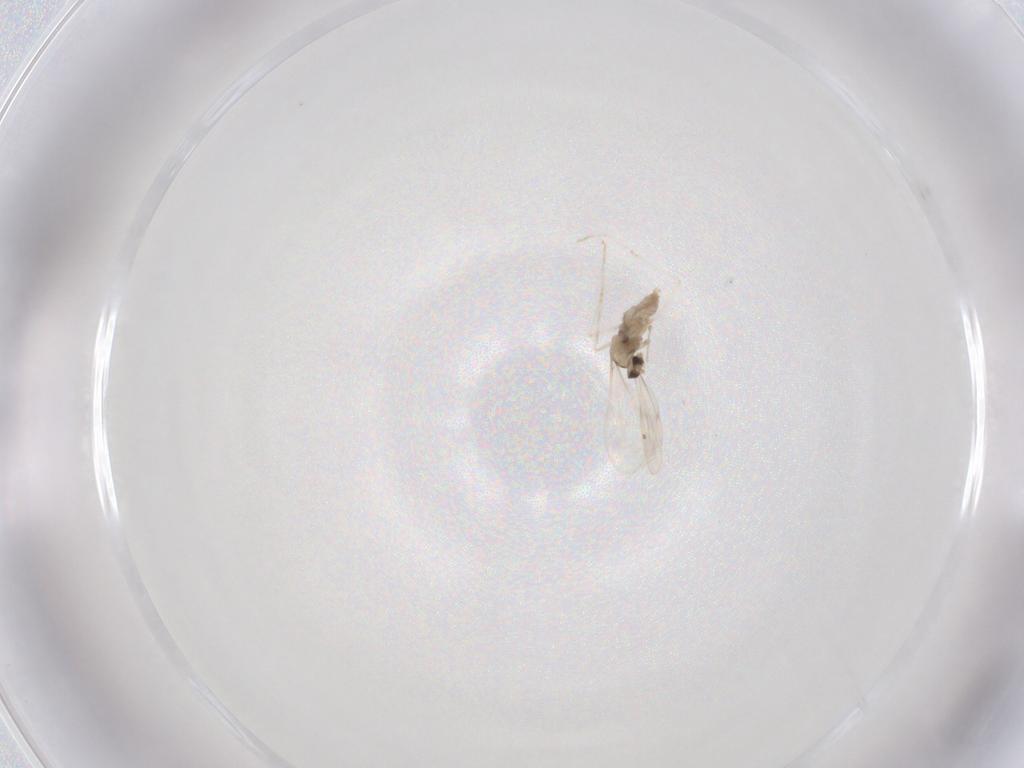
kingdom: Animalia
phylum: Arthropoda
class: Insecta
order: Diptera
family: Cecidomyiidae
